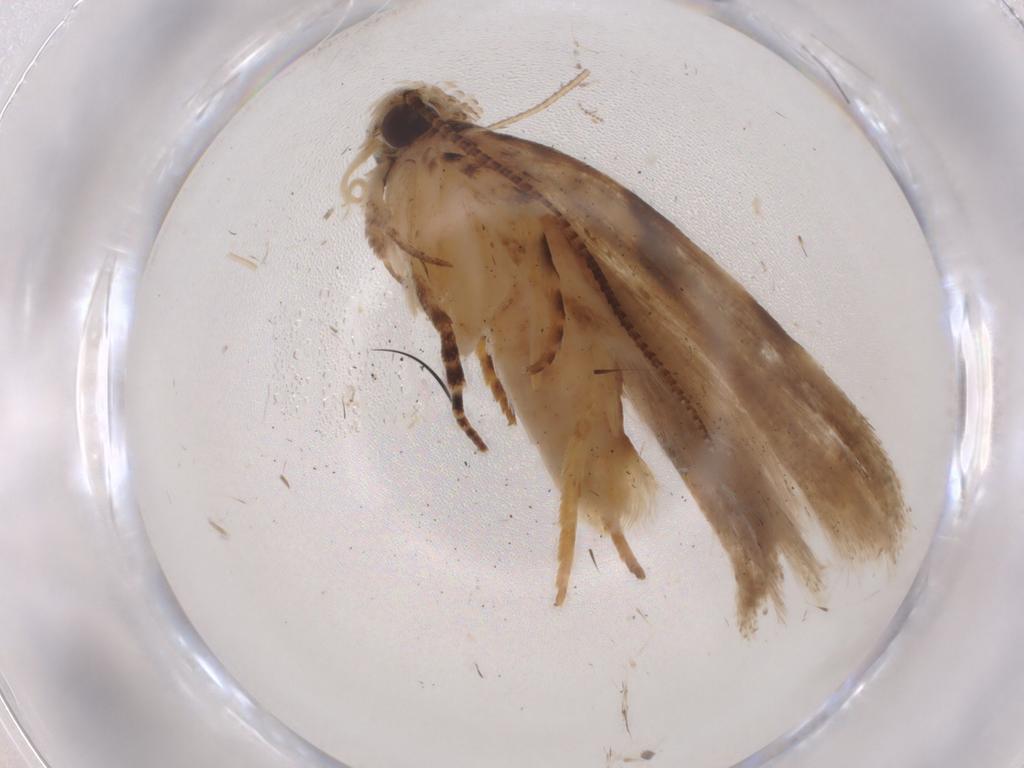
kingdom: Animalia
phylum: Arthropoda
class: Insecta
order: Lepidoptera
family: Gelechiidae
